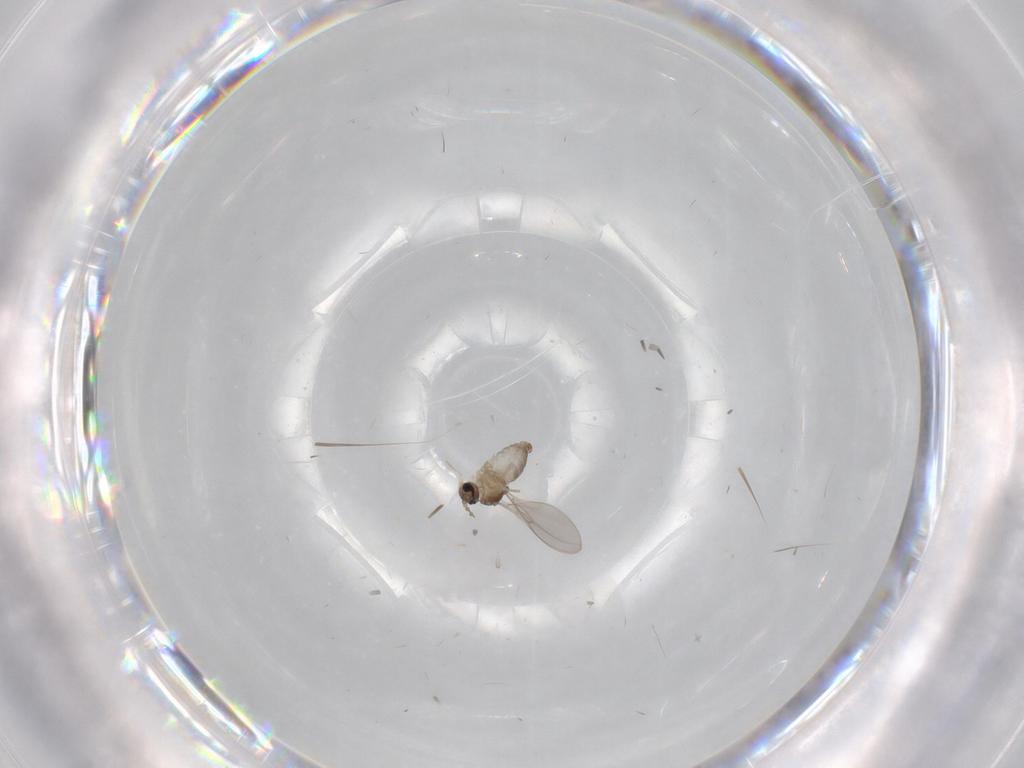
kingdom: Animalia
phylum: Arthropoda
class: Insecta
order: Diptera
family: Cecidomyiidae
